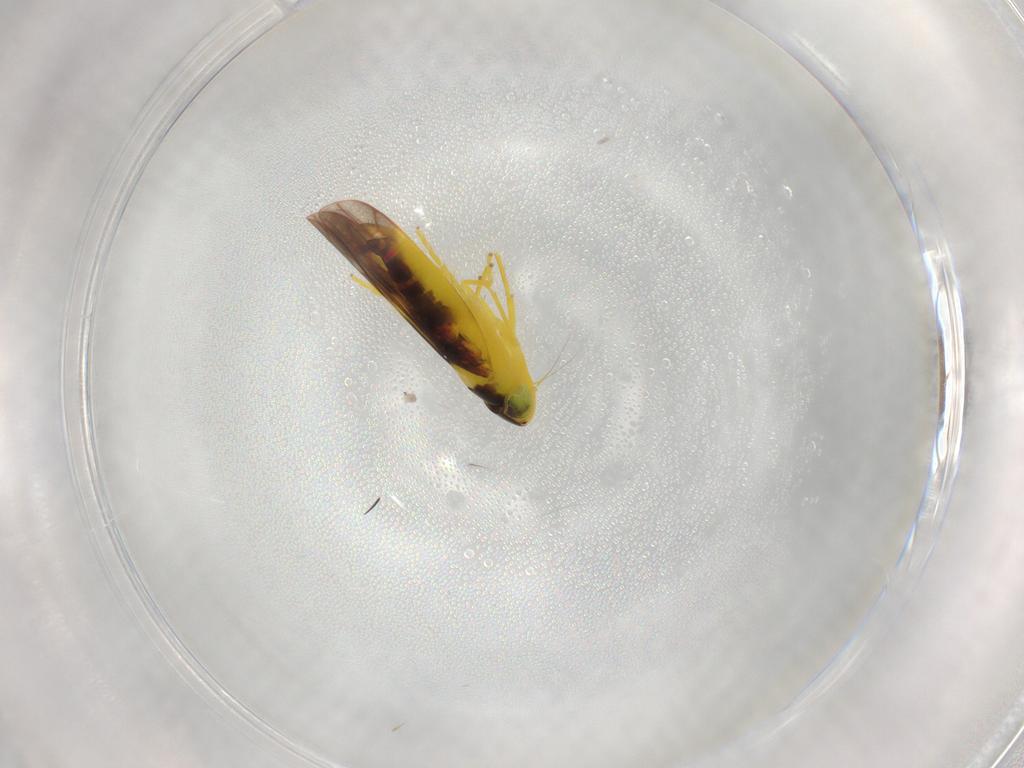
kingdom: Animalia
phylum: Arthropoda
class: Insecta
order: Hemiptera
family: Cicadellidae
